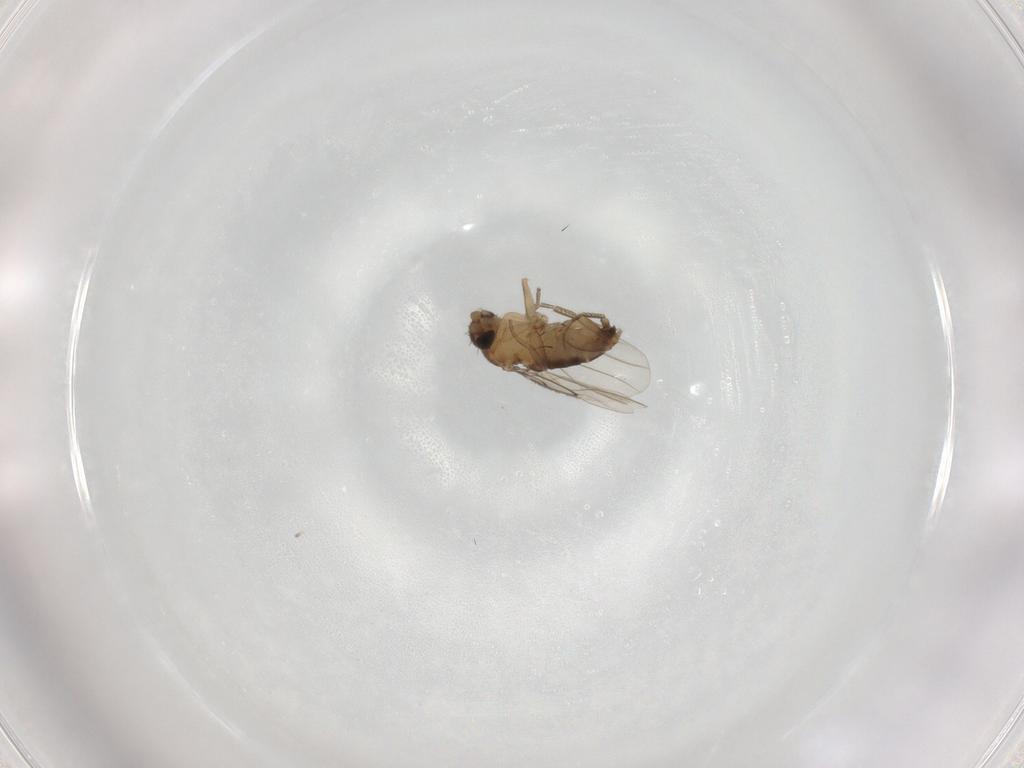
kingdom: Animalia
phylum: Arthropoda
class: Insecta
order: Diptera
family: Phoridae
